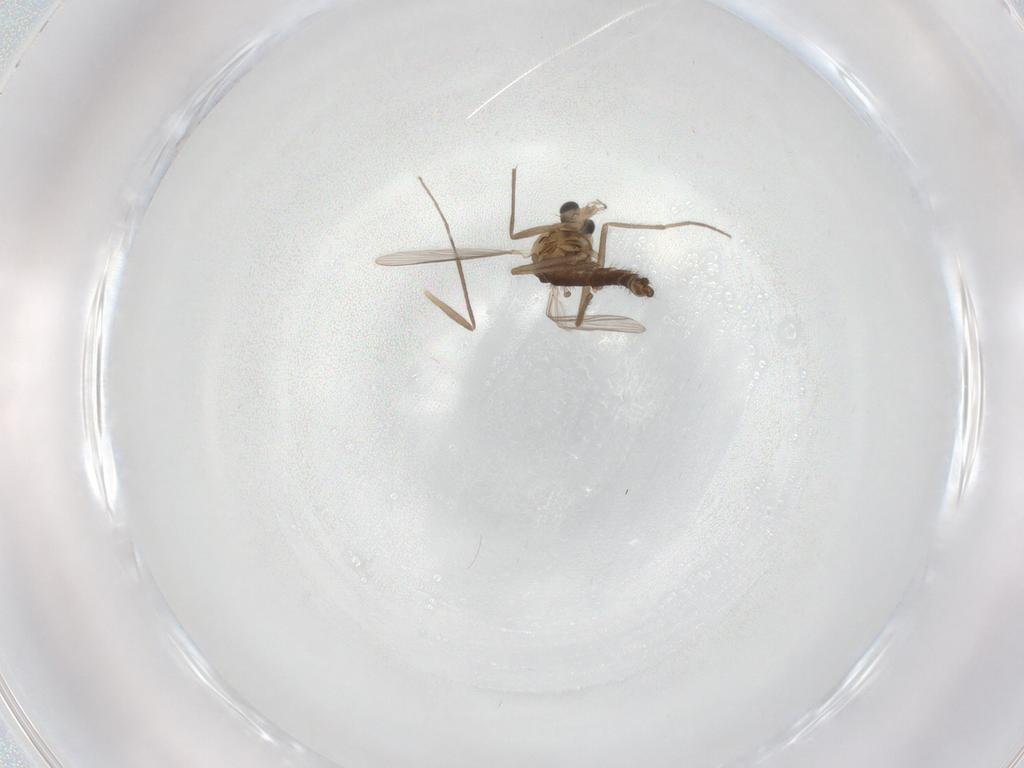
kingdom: Animalia
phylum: Arthropoda
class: Insecta
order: Diptera
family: Chironomidae
